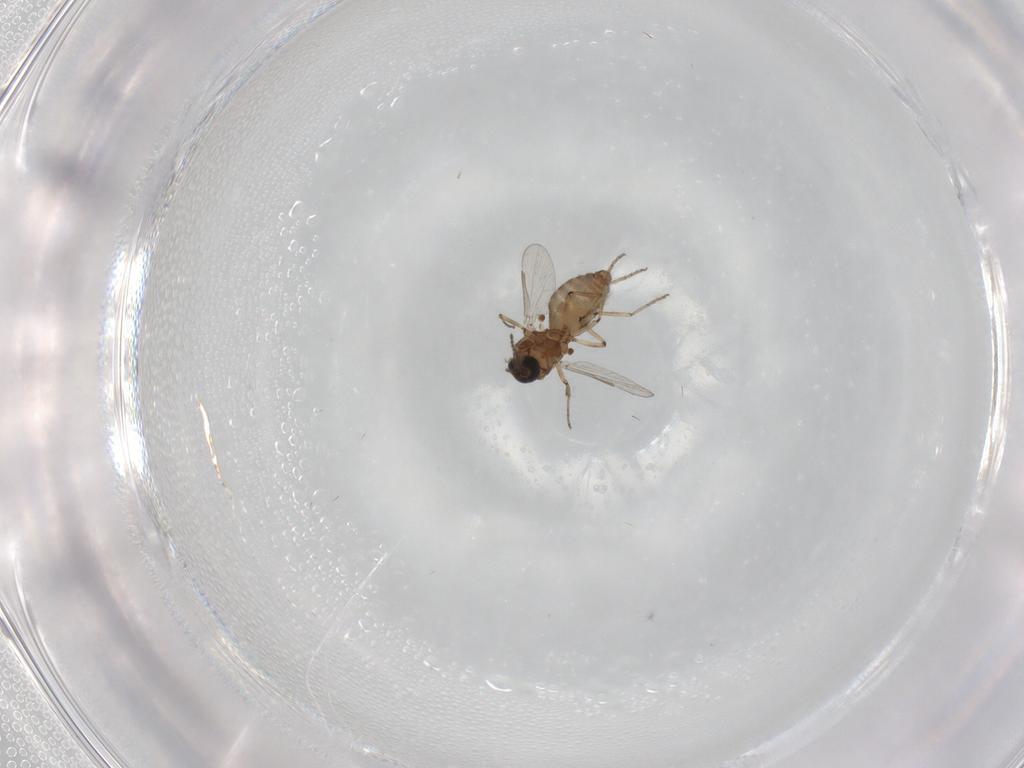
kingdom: Animalia
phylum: Arthropoda
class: Insecta
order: Diptera
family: Ceratopogonidae
